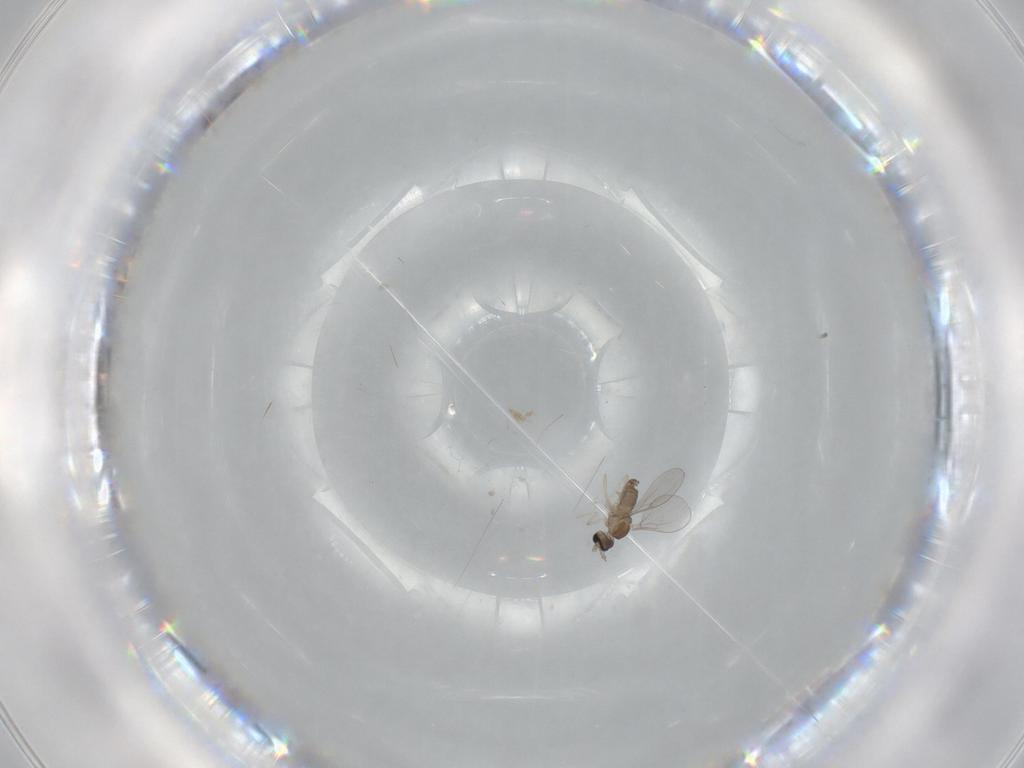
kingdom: Animalia
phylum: Arthropoda
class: Insecta
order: Diptera
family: Cecidomyiidae
